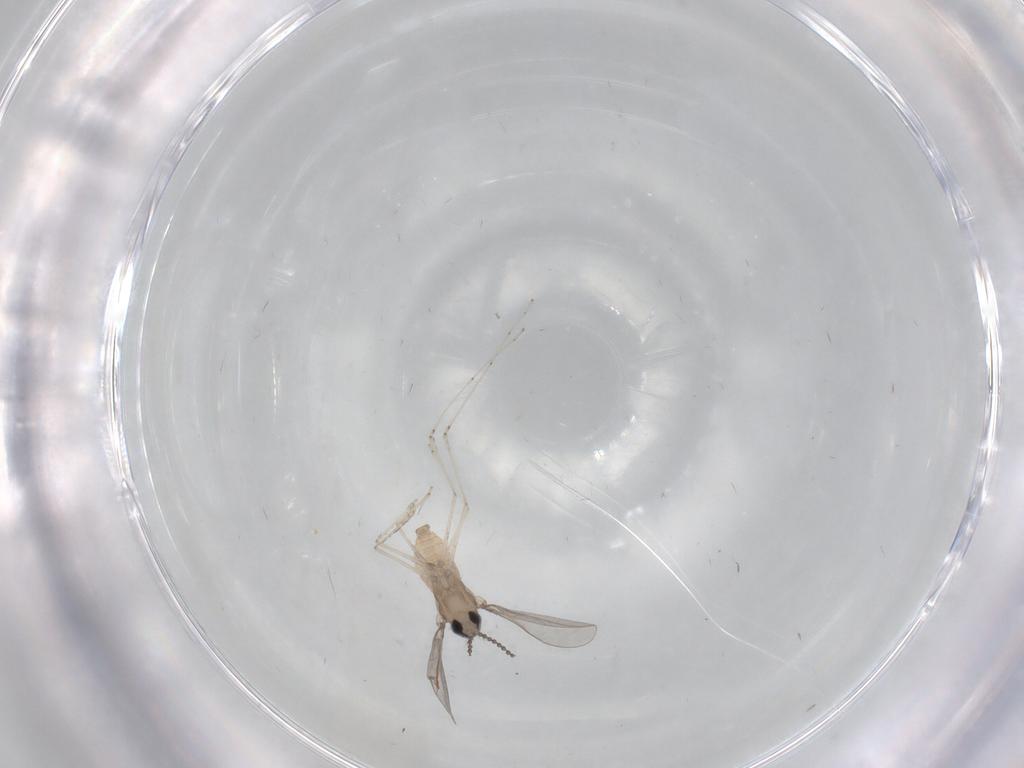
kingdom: Animalia
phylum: Arthropoda
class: Insecta
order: Diptera
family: Cecidomyiidae
